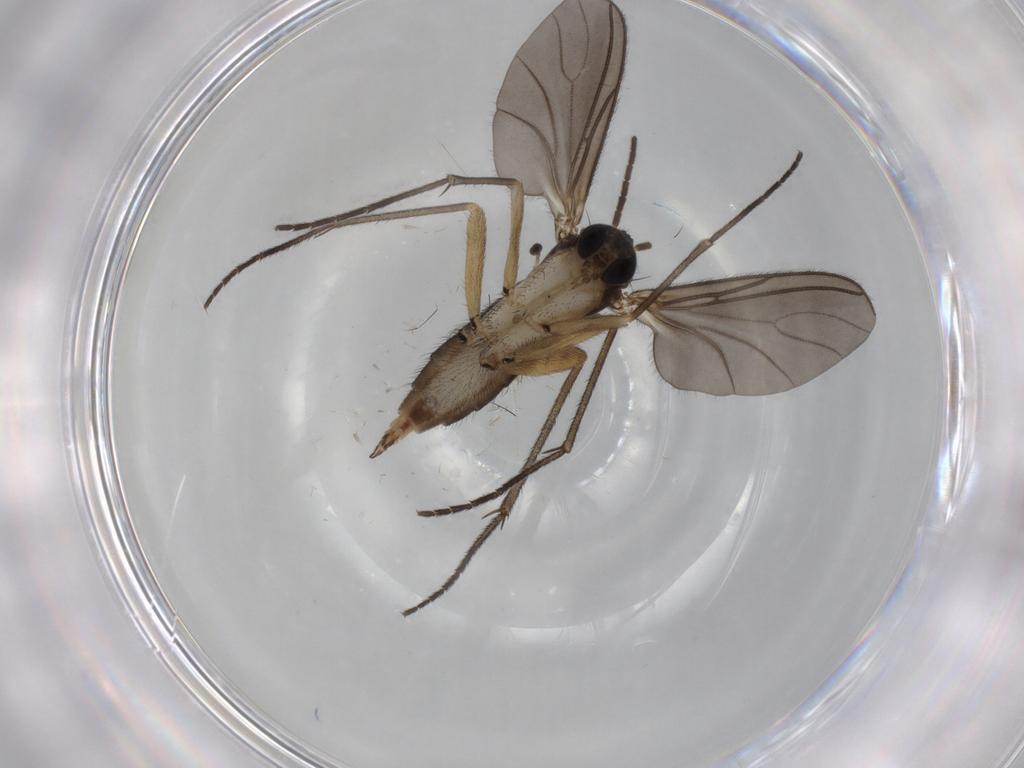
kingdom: Animalia
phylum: Arthropoda
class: Insecta
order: Diptera
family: Sciaridae
